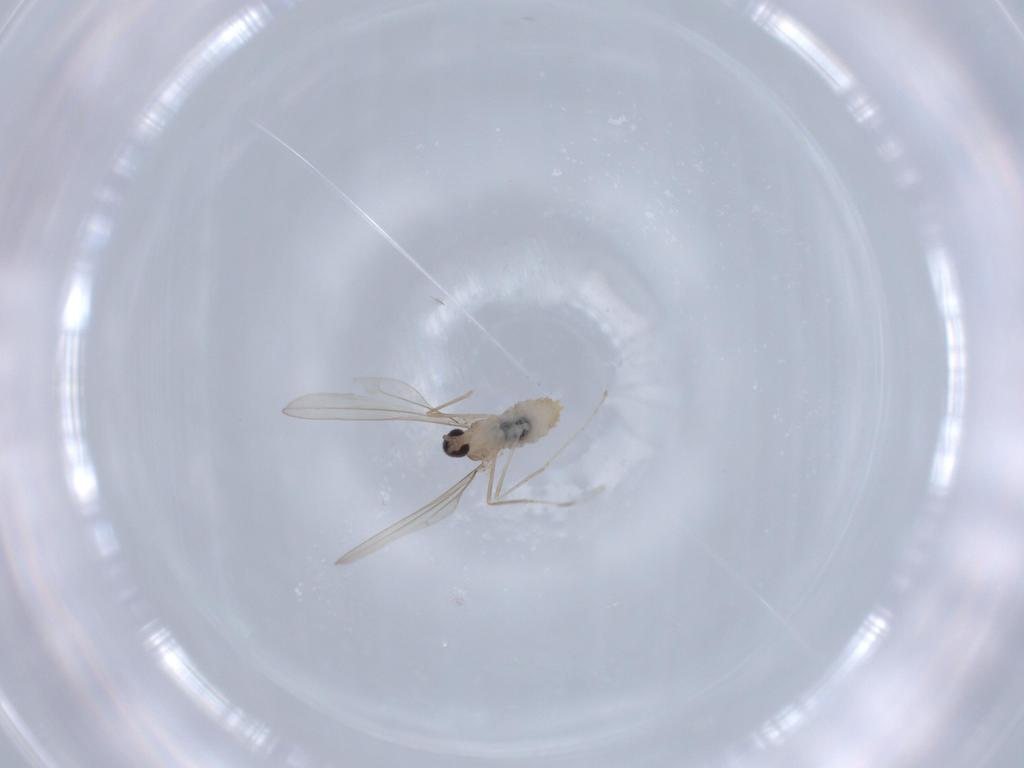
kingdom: Animalia
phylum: Arthropoda
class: Insecta
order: Diptera
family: Cecidomyiidae
